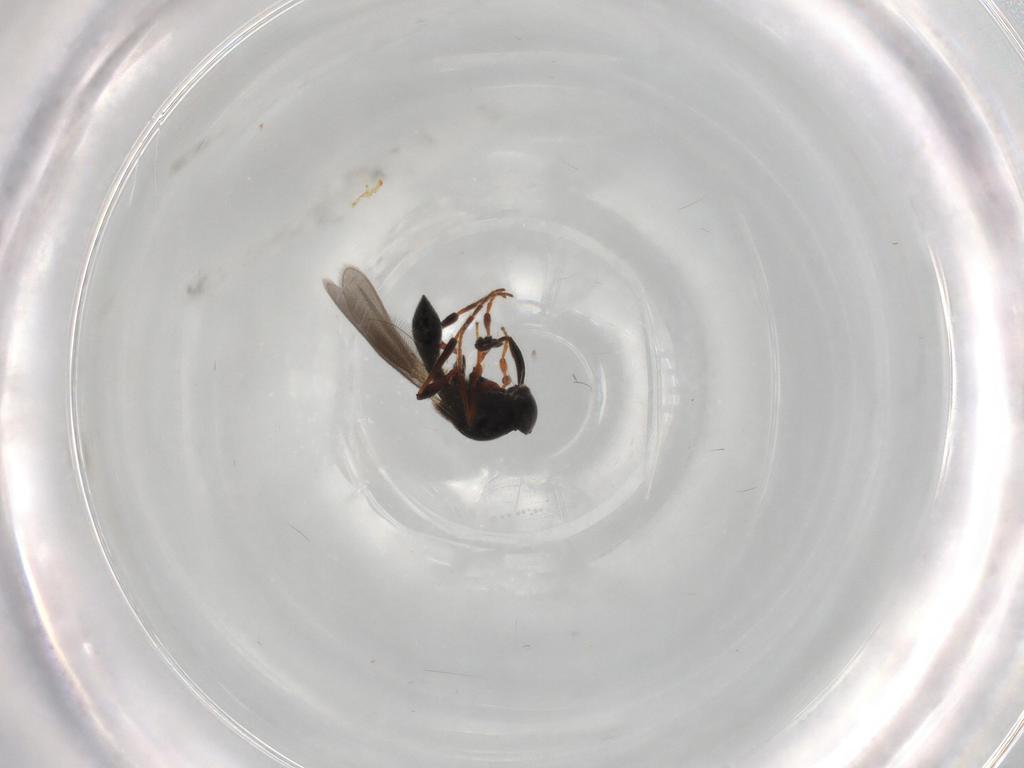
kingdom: Animalia
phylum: Arthropoda
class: Insecta
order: Hymenoptera
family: Platygastridae
